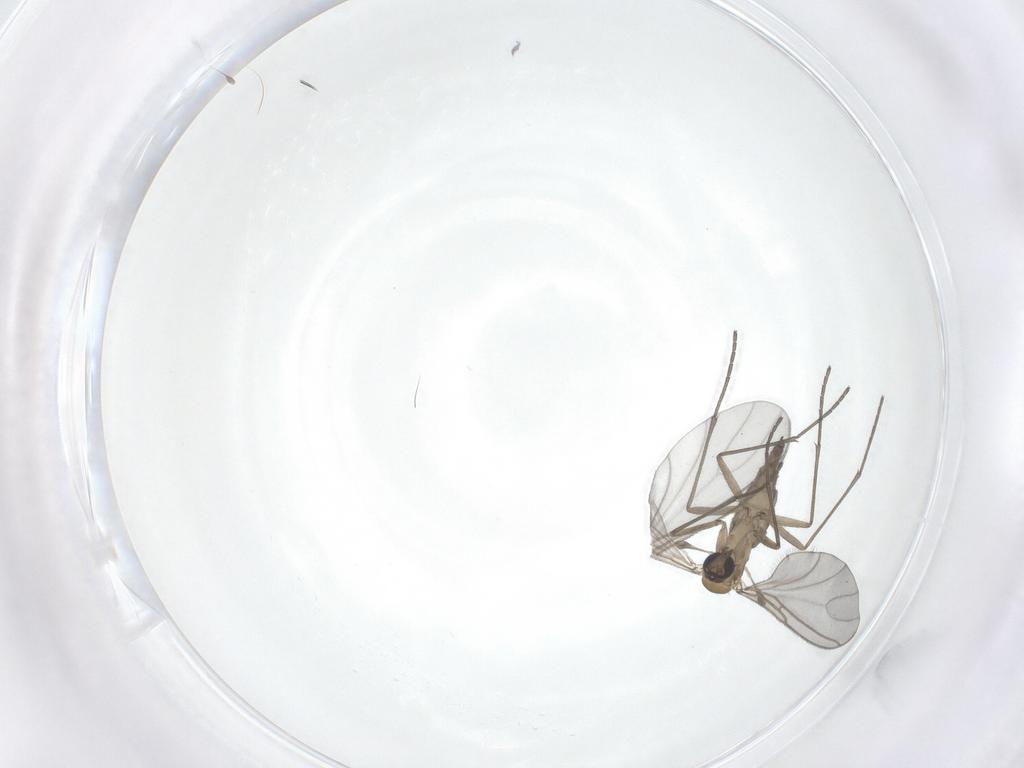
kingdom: Animalia
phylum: Arthropoda
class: Insecta
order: Diptera
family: Sciaridae
